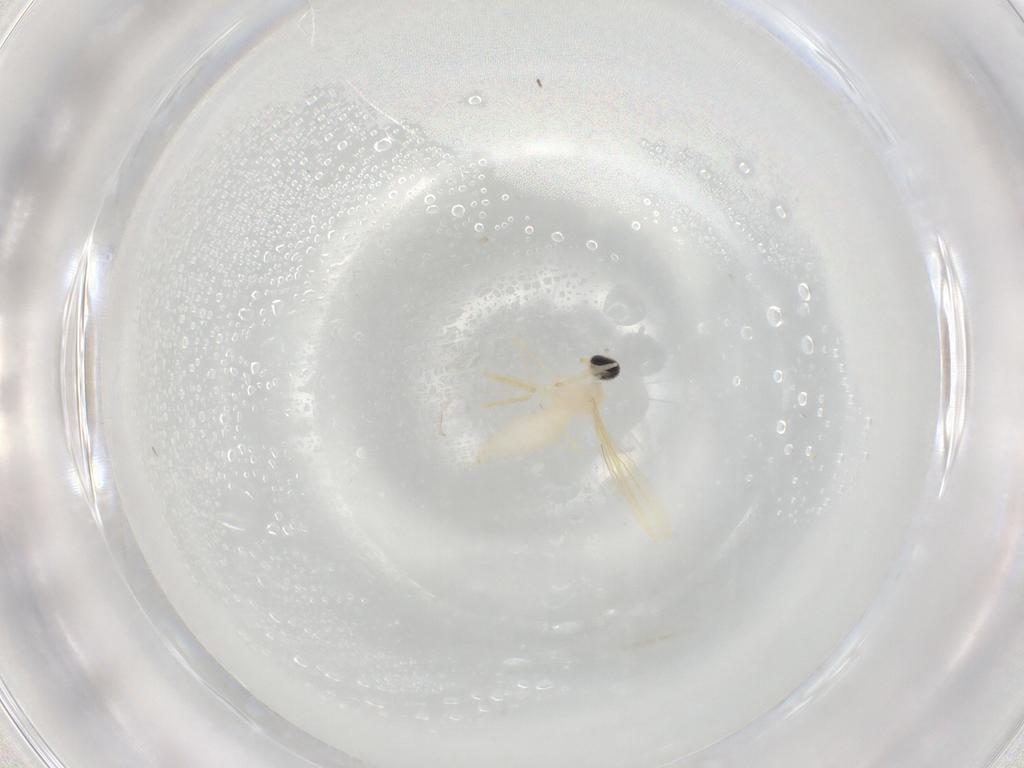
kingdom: Animalia
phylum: Arthropoda
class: Insecta
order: Diptera
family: Cecidomyiidae
